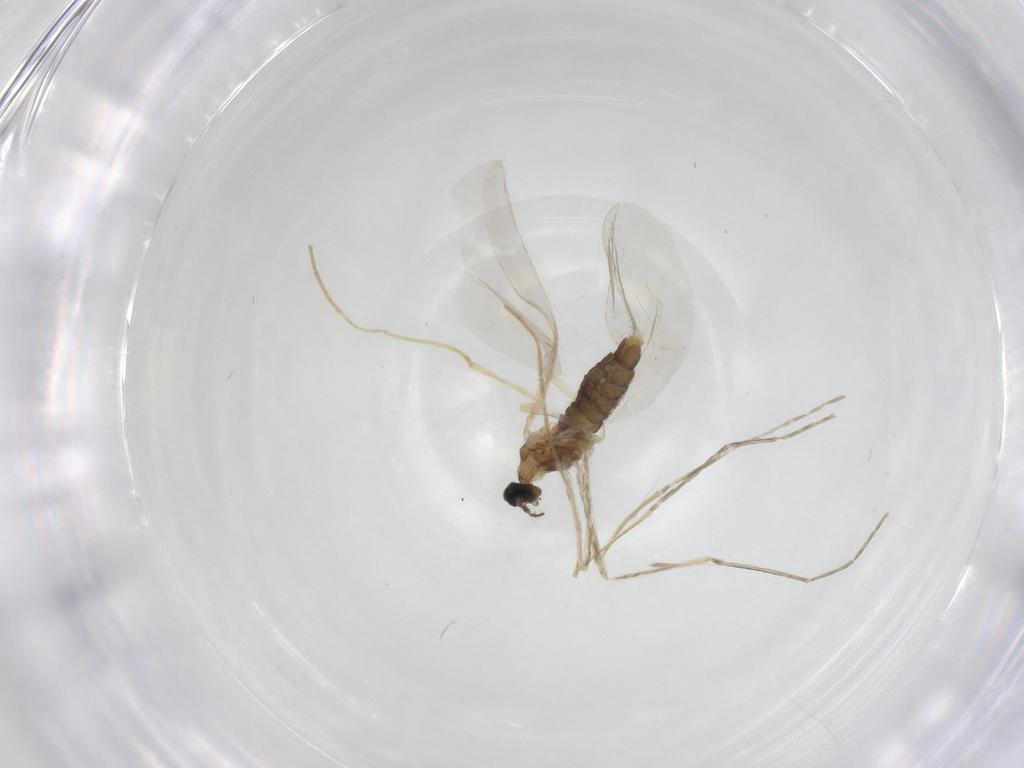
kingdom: Animalia
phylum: Arthropoda
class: Insecta
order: Diptera
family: Cecidomyiidae
